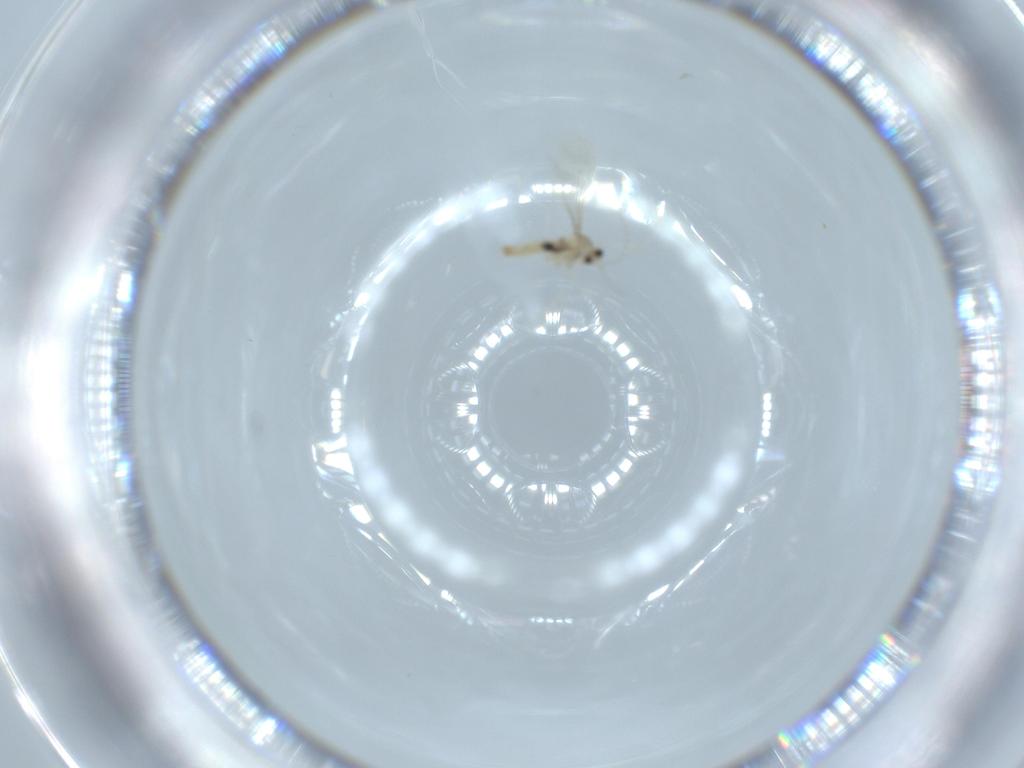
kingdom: Animalia
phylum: Arthropoda
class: Insecta
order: Diptera
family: Cecidomyiidae
